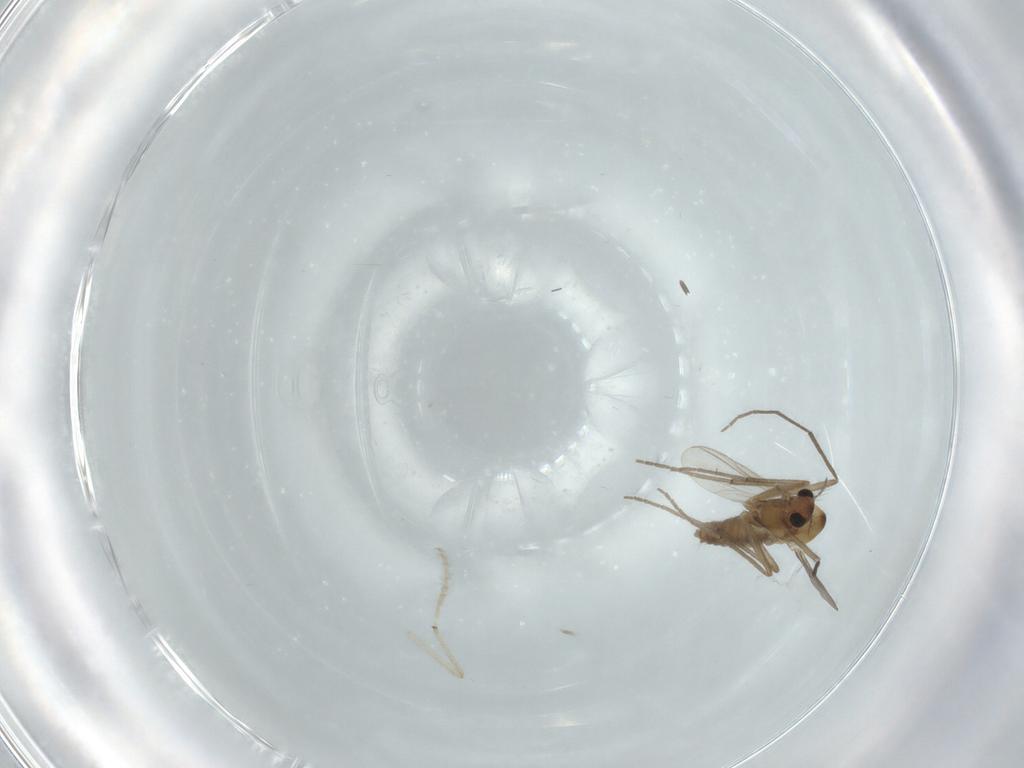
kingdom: Animalia
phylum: Arthropoda
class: Insecta
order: Diptera
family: Chironomidae
